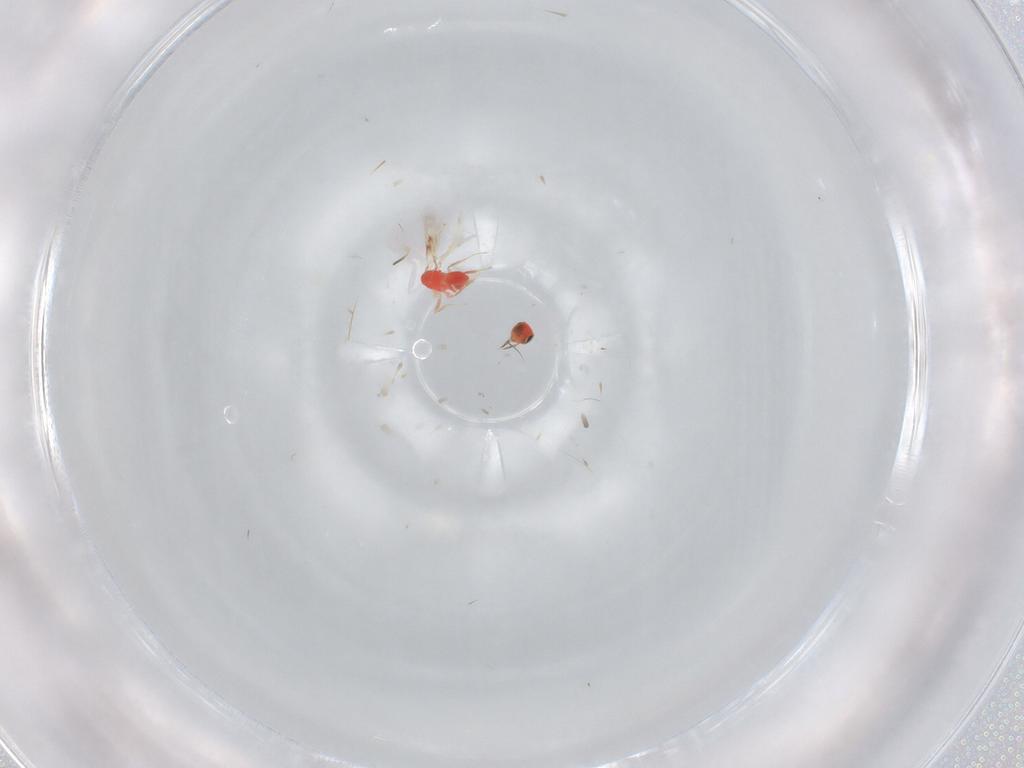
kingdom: Animalia
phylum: Arthropoda
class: Insecta
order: Hymenoptera
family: Trichogrammatidae
